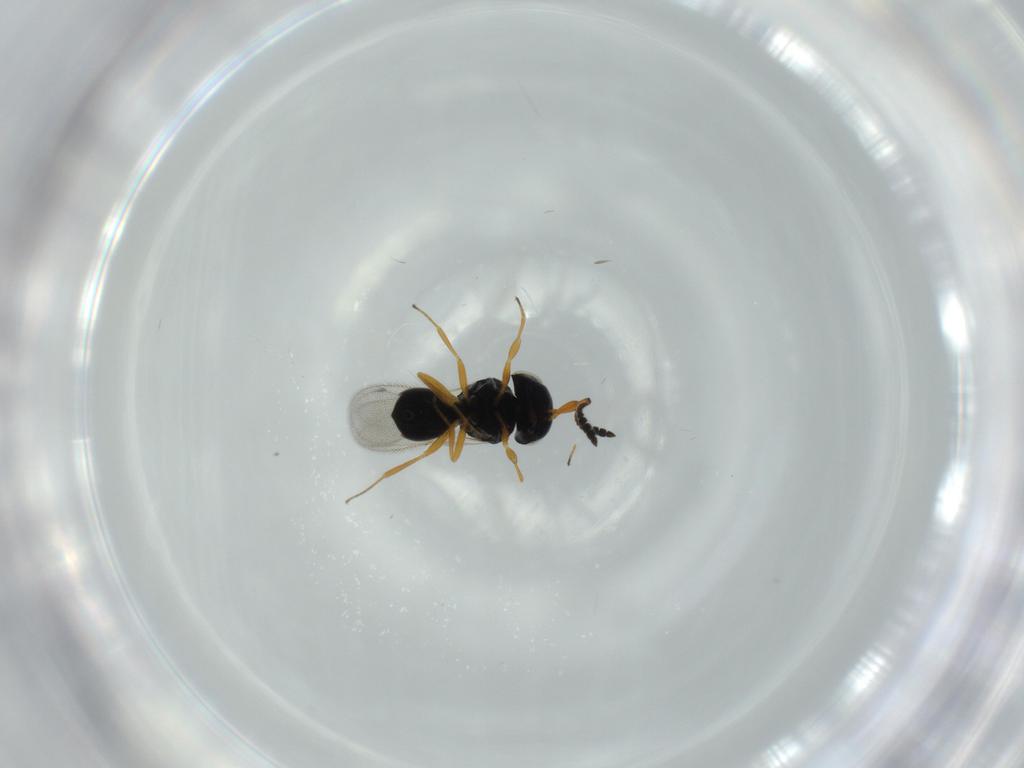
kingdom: Animalia
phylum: Arthropoda
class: Insecta
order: Hymenoptera
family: Scelionidae
